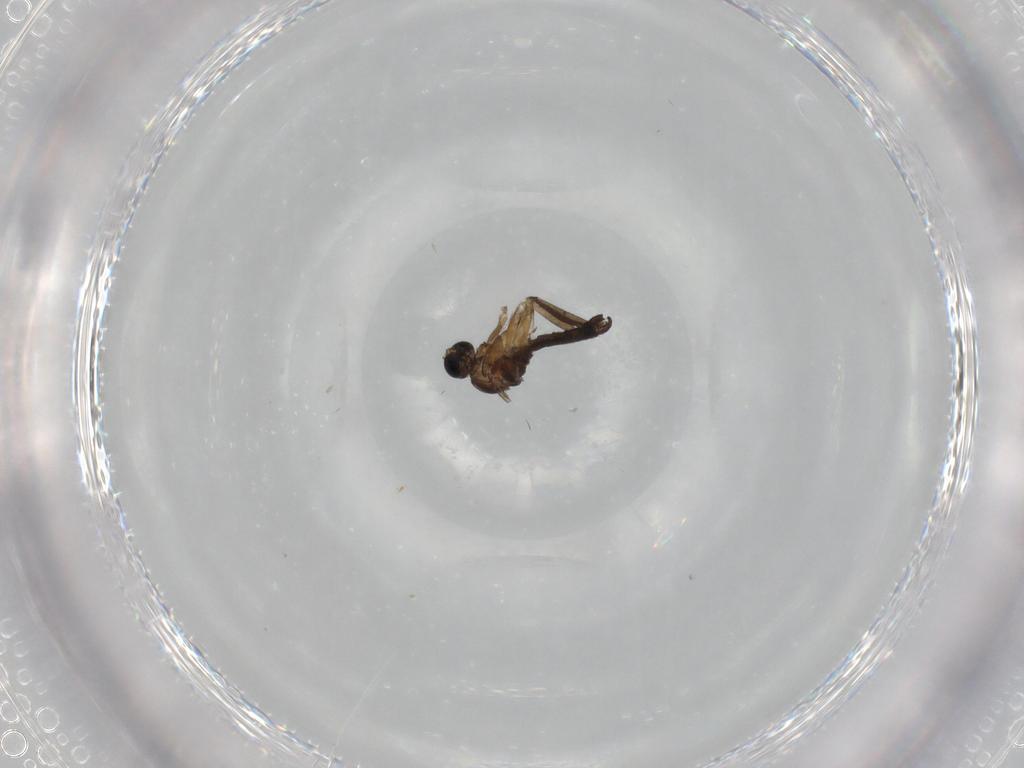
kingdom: Animalia
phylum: Arthropoda
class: Insecta
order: Diptera
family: Sciaridae
